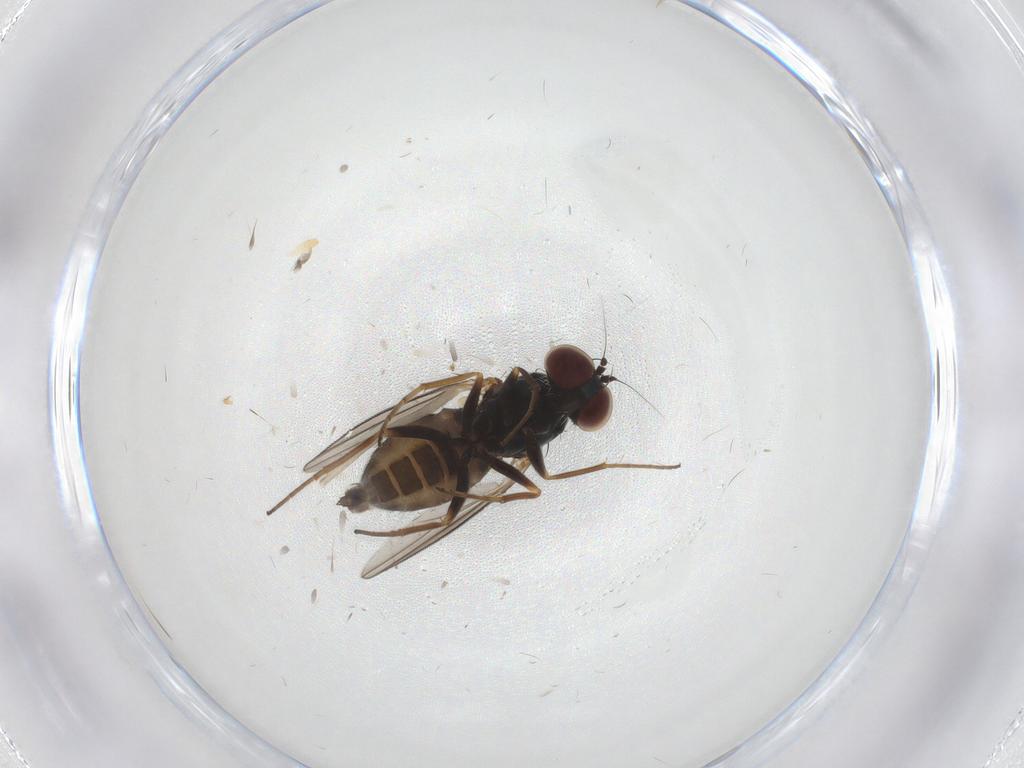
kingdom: Animalia
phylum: Arthropoda
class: Insecta
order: Diptera
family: Dolichopodidae
